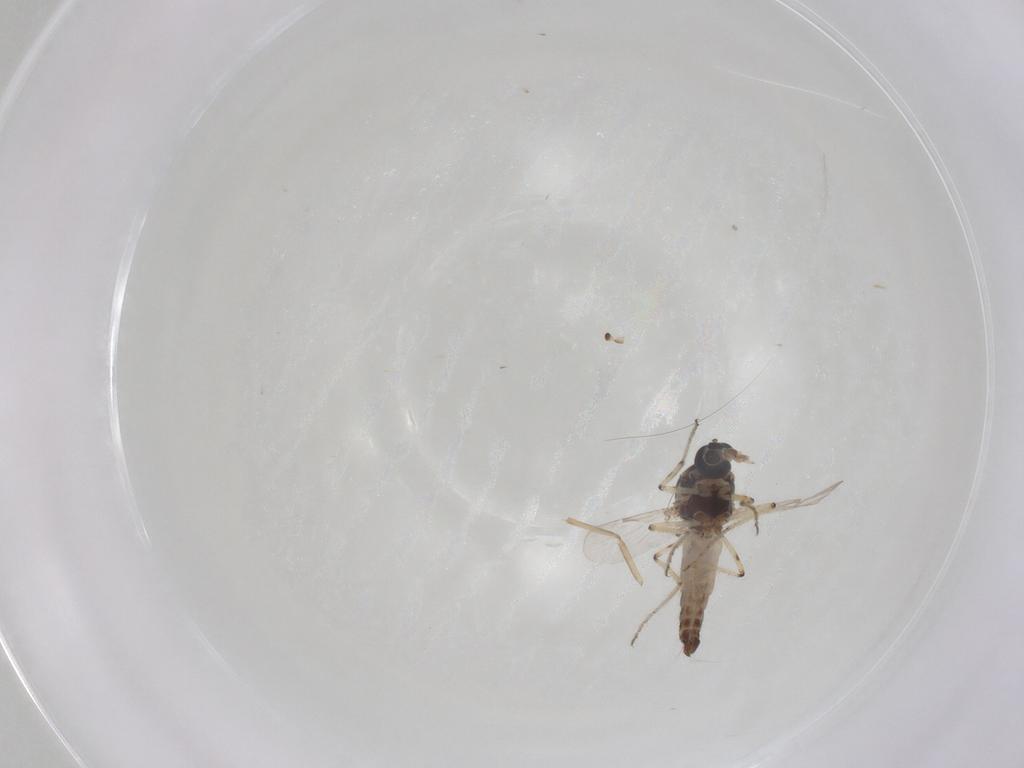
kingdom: Animalia
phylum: Arthropoda
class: Insecta
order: Diptera
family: Ceratopogonidae
